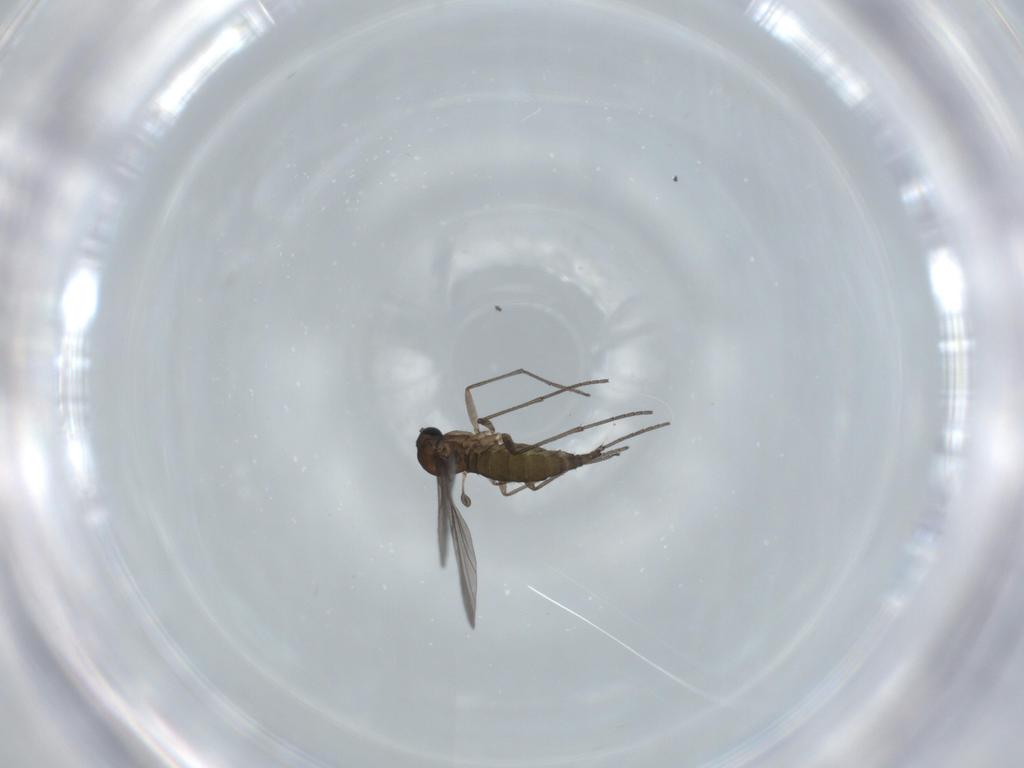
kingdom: Animalia
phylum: Arthropoda
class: Insecta
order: Diptera
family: Sciaridae
